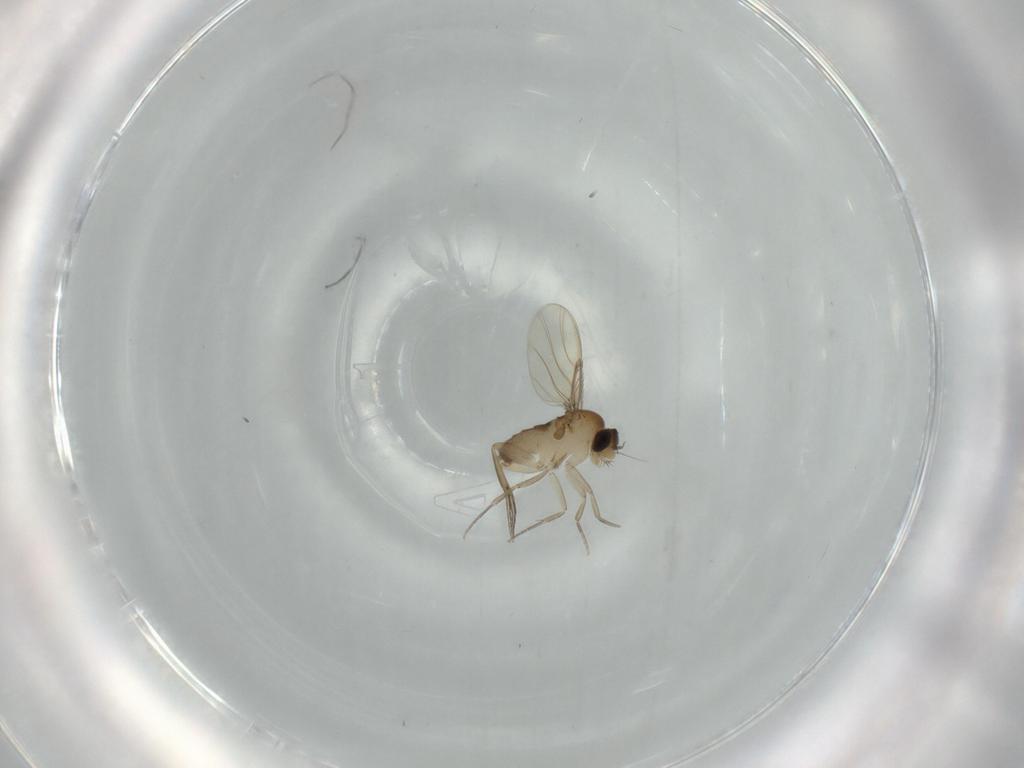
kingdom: Animalia
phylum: Arthropoda
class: Insecta
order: Diptera
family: Phoridae
